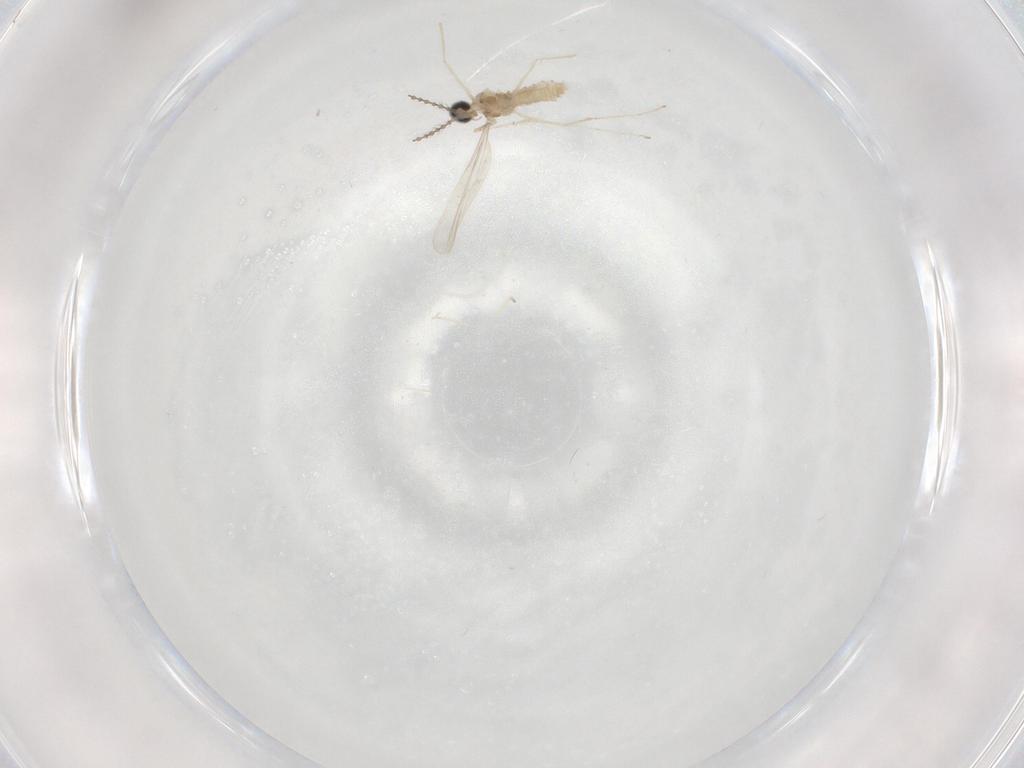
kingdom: Animalia
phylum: Arthropoda
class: Insecta
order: Diptera
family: Cecidomyiidae
